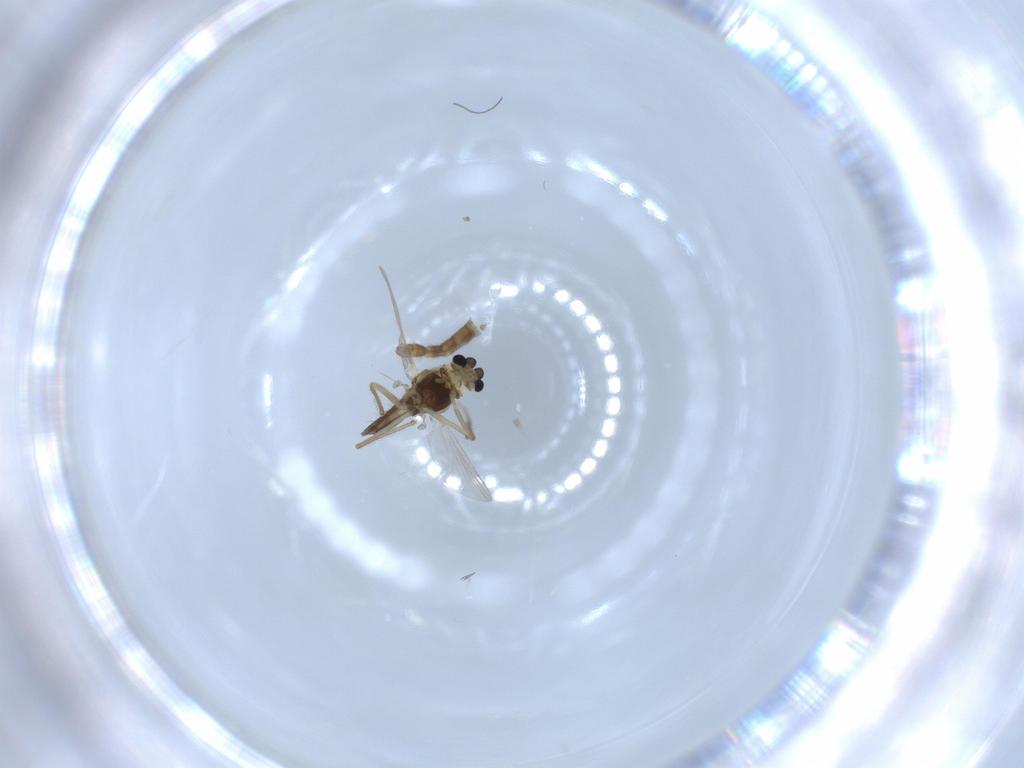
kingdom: Animalia
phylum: Arthropoda
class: Insecta
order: Diptera
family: Chironomidae
